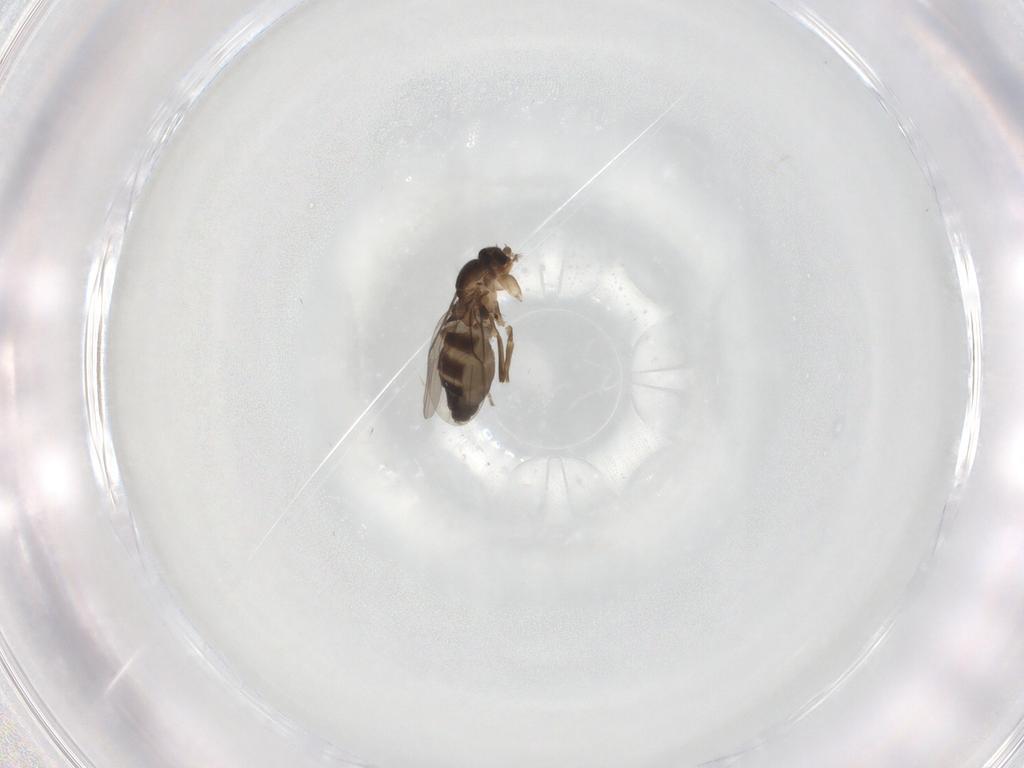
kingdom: Animalia
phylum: Arthropoda
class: Insecta
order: Diptera
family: Phoridae
